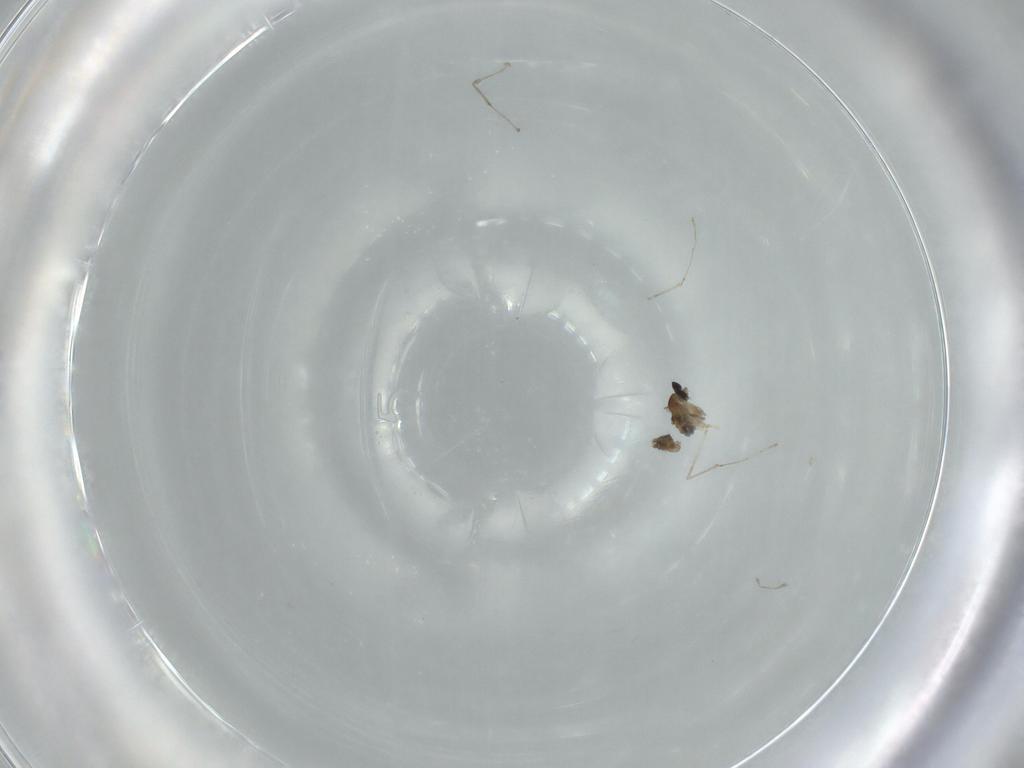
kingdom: Animalia
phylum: Arthropoda
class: Insecta
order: Diptera
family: Cecidomyiidae
